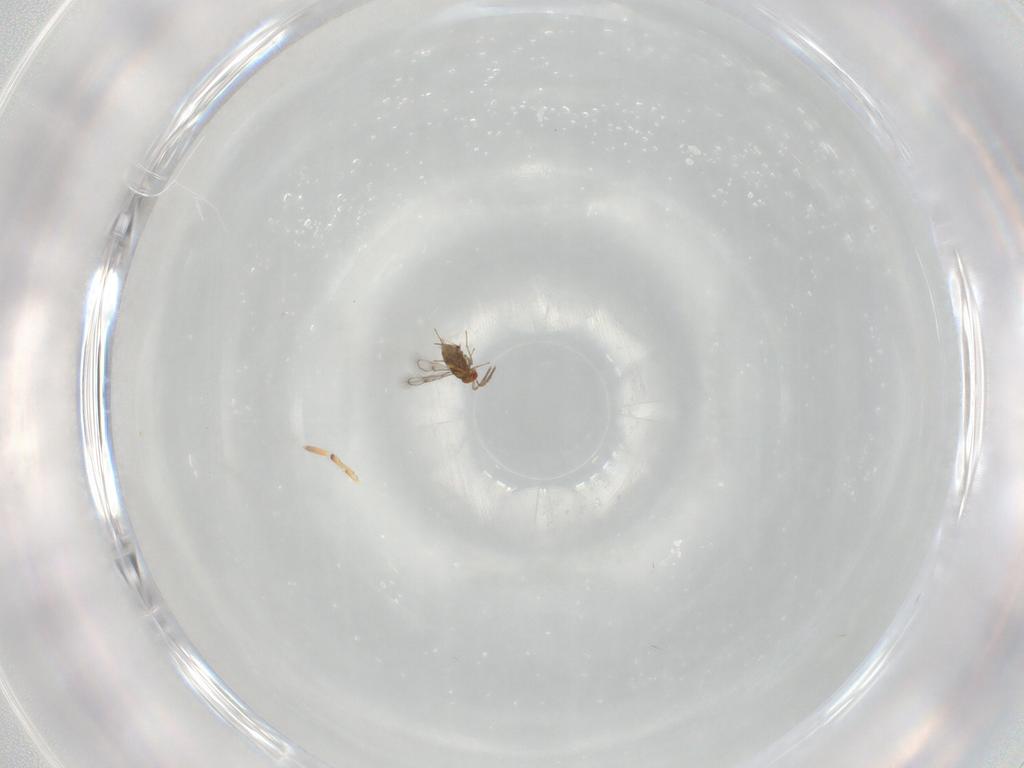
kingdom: Animalia
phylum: Arthropoda
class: Insecta
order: Hymenoptera
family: Trichogrammatidae
